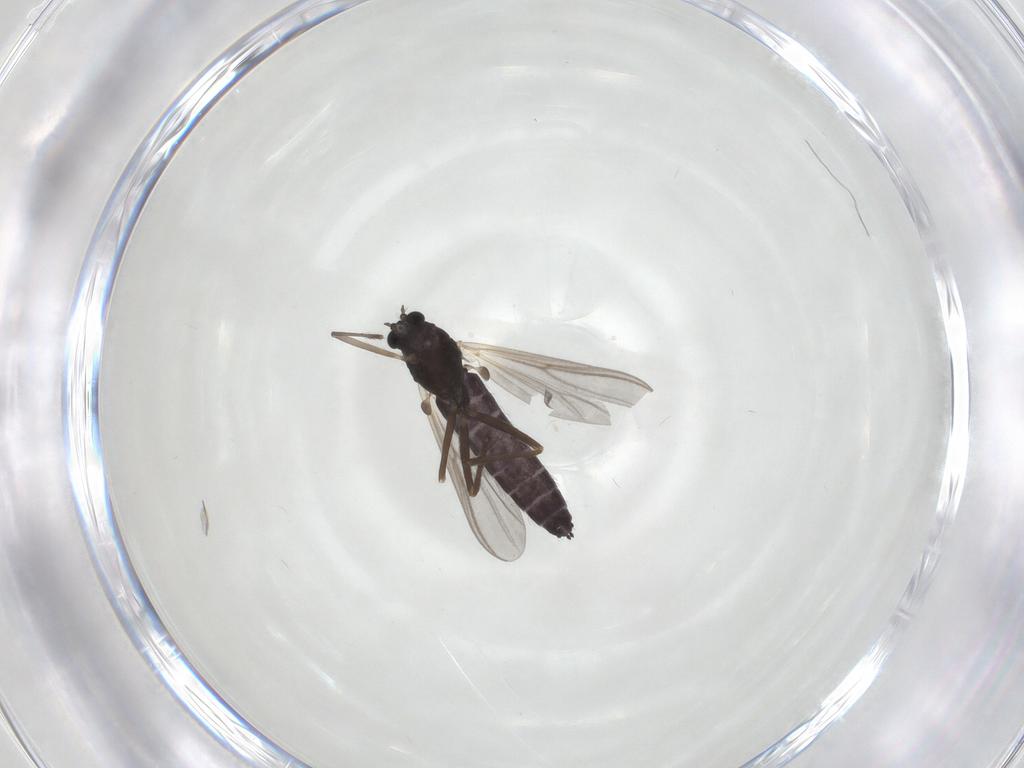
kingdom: Animalia
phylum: Arthropoda
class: Insecta
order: Diptera
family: Chironomidae
